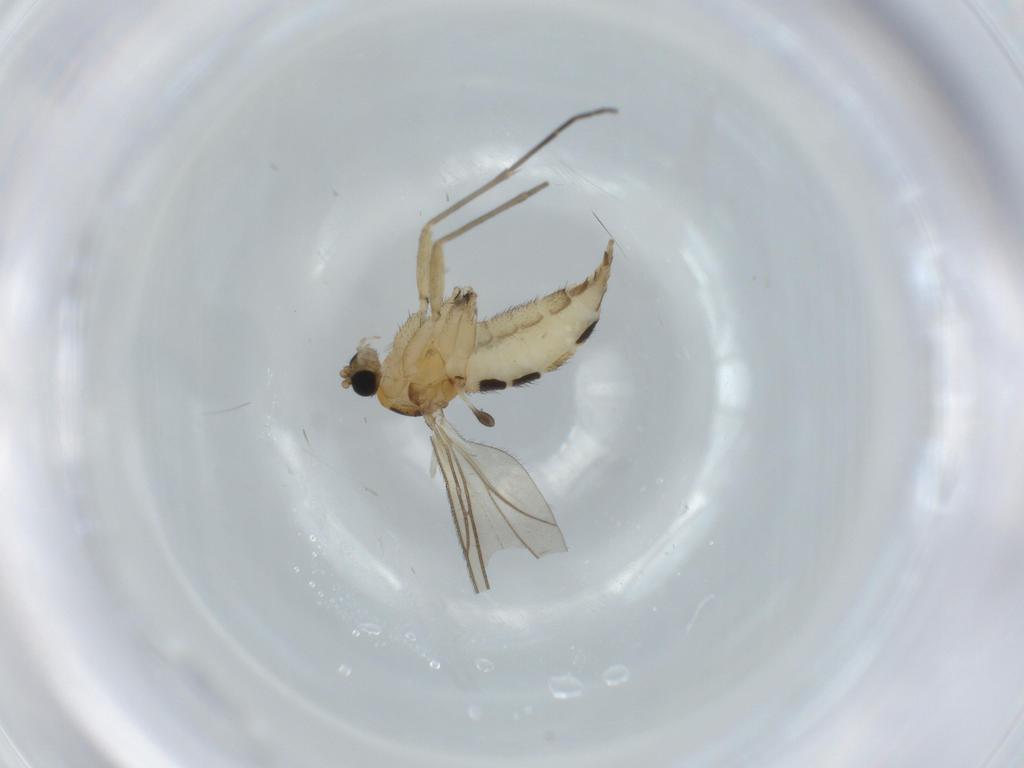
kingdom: Animalia
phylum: Arthropoda
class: Insecta
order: Diptera
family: Sciaridae
